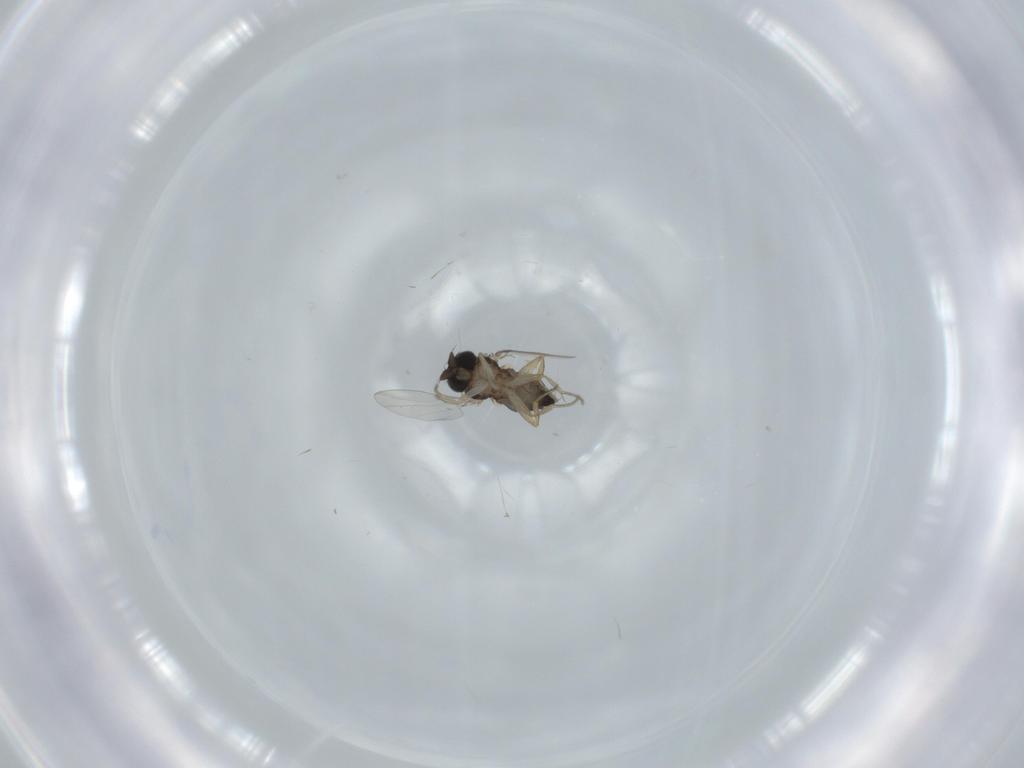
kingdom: Animalia
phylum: Arthropoda
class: Insecta
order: Diptera
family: Phoridae
